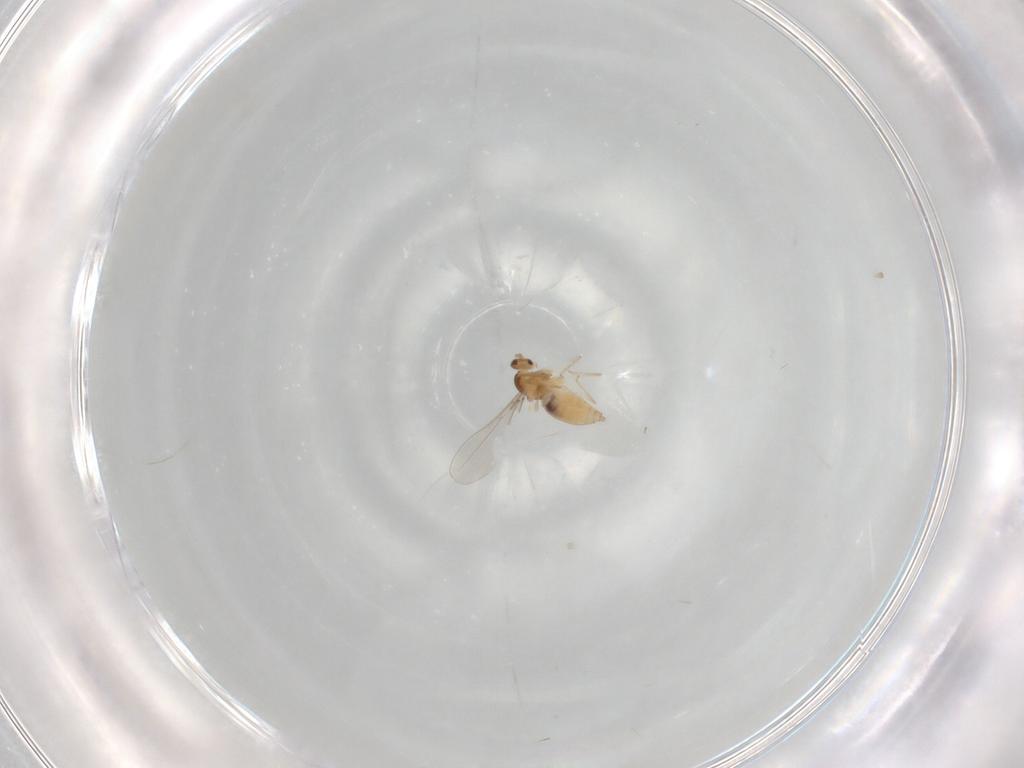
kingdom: Animalia
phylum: Arthropoda
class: Insecta
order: Diptera
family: Cecidomyiidae
